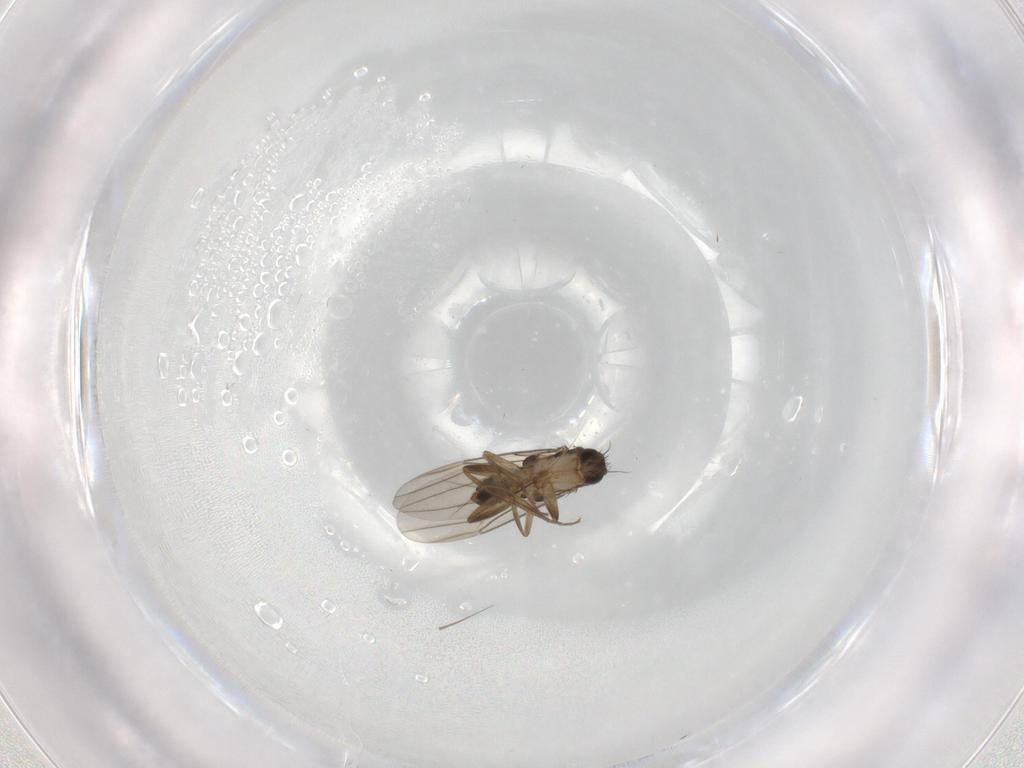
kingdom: Animalia
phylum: Arthropoda
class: Insecta
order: Diptera
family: Phoridae
